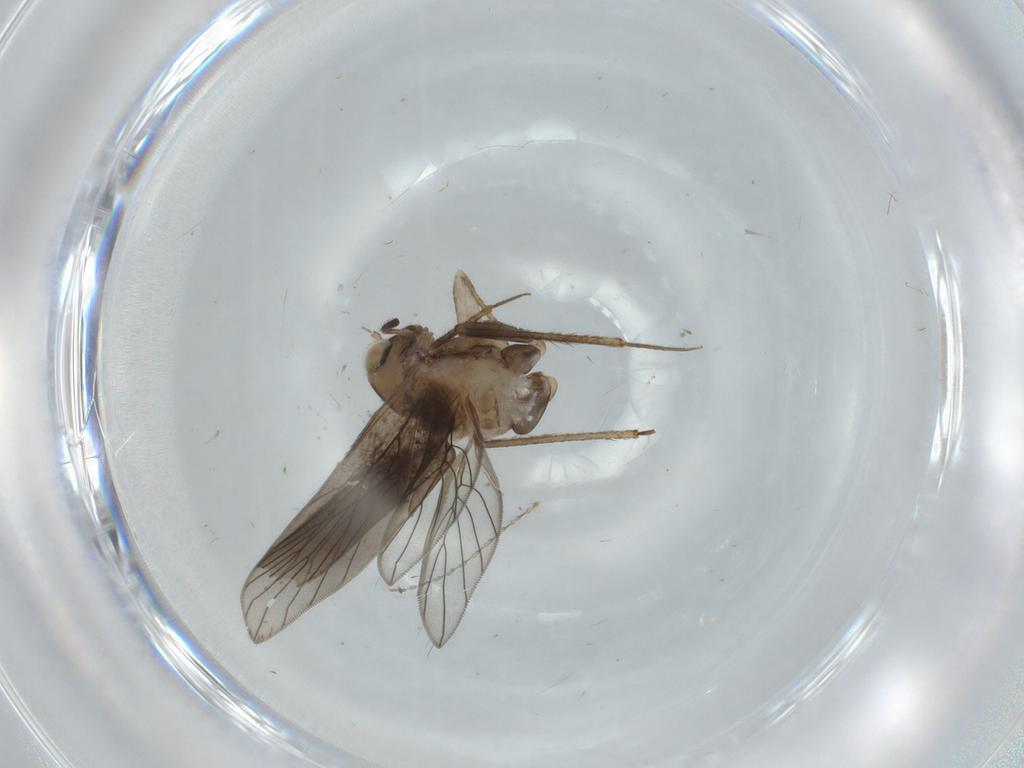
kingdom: Animalia
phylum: Arthropoda
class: Insecta
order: Psocodea
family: Lepidopsocidae
